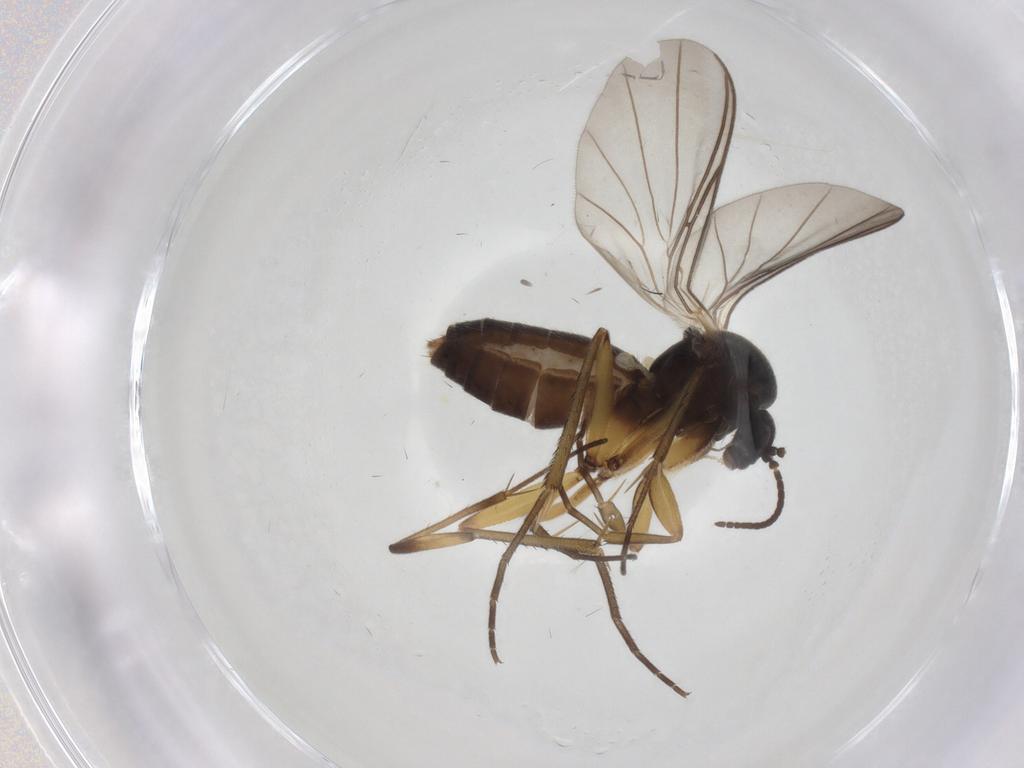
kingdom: Animalia
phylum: Arthropoda
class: Insecta
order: Diptera
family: Mycetophilidae
